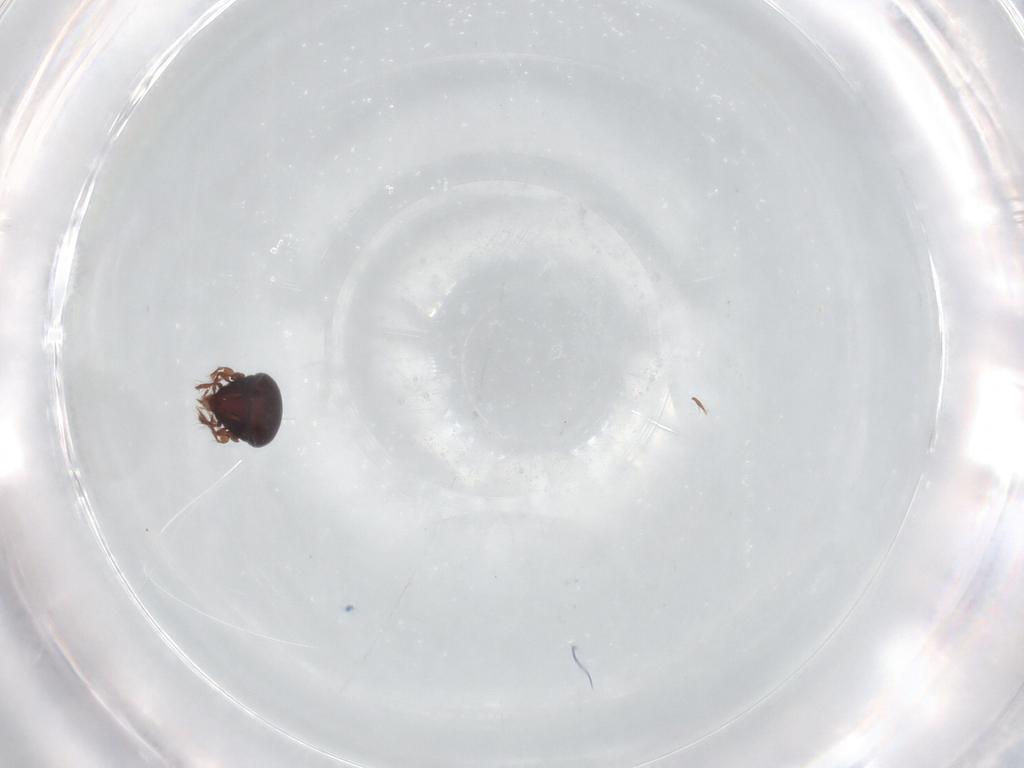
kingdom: Animalia
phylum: Arthropoda
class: Arachnida
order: Sarcoptiformes
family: Ceratoppiidae
